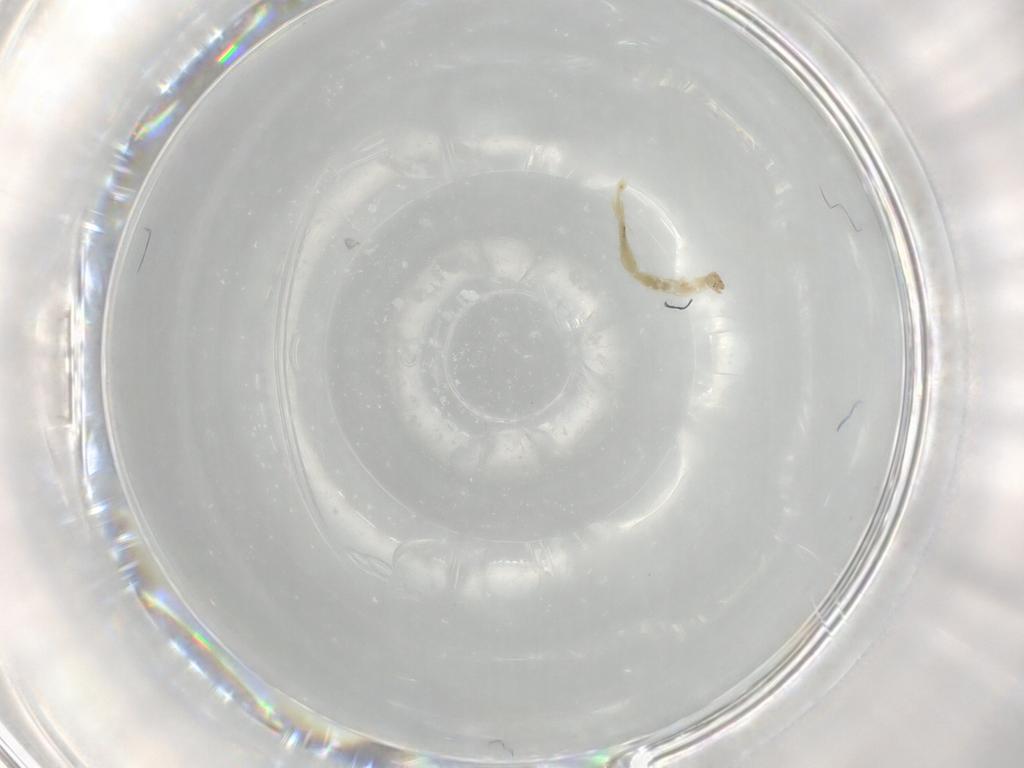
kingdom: Animalia
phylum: Arthropoda
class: Insecta
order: Diptera
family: Chironomidae
